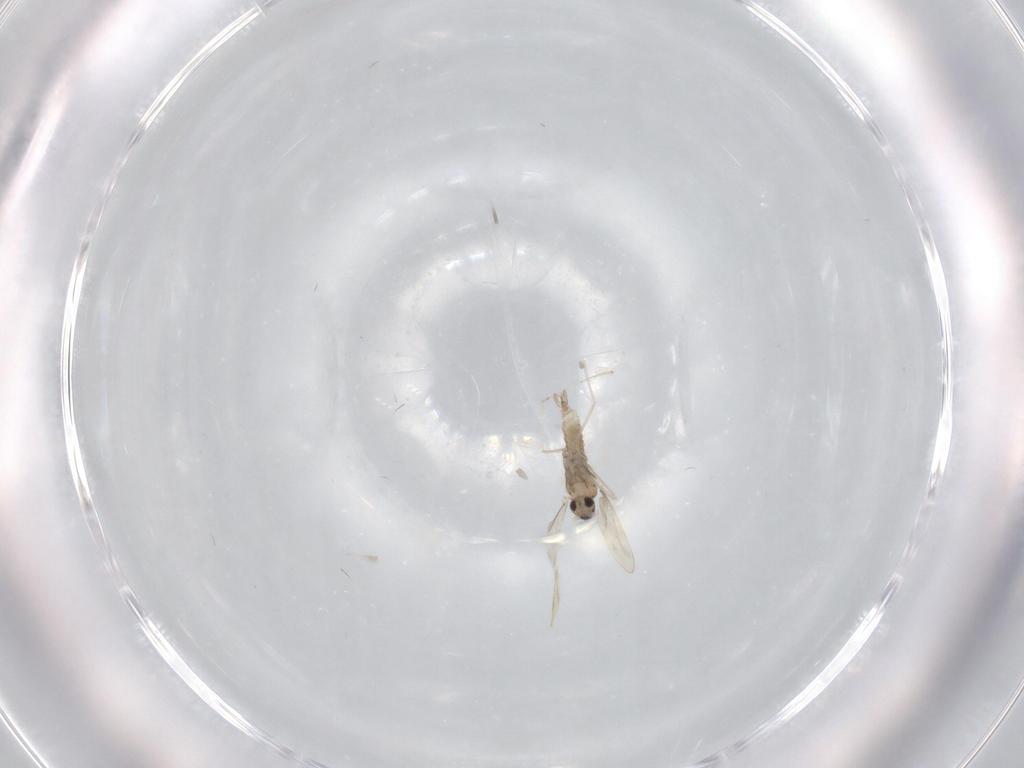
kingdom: Animalia
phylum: Arthropoda
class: Insecta
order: Diptera
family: Cecidomyiidae
